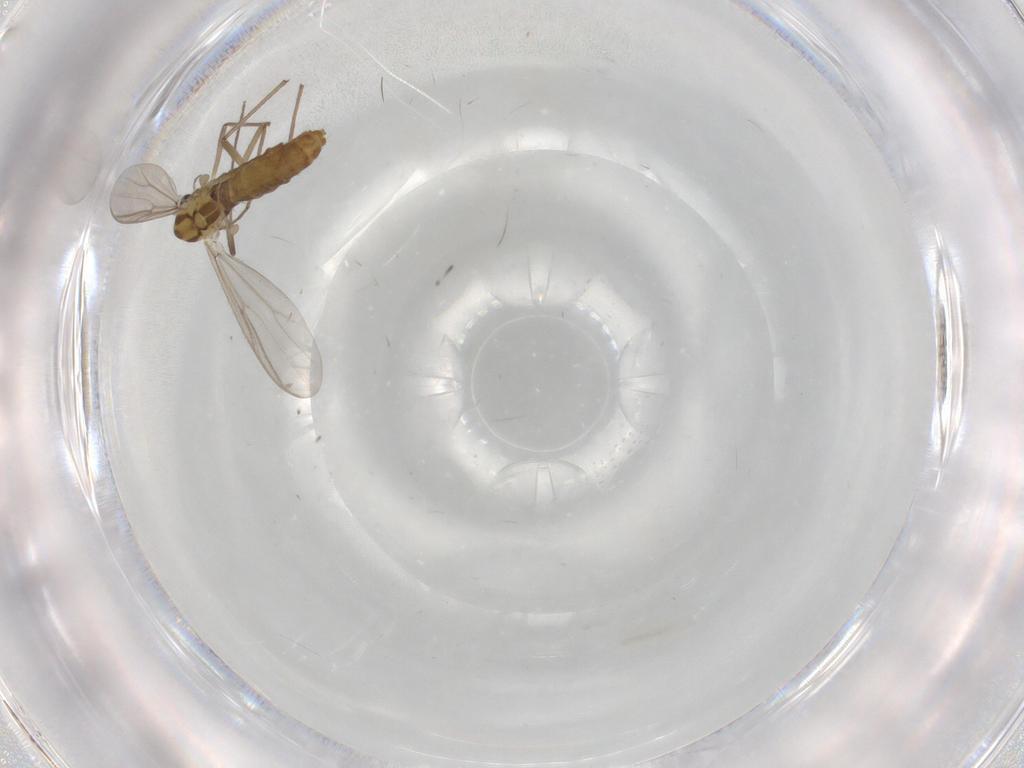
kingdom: Animalia
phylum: Arthropoda
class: Insecta
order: Diptera
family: Chironomidae
